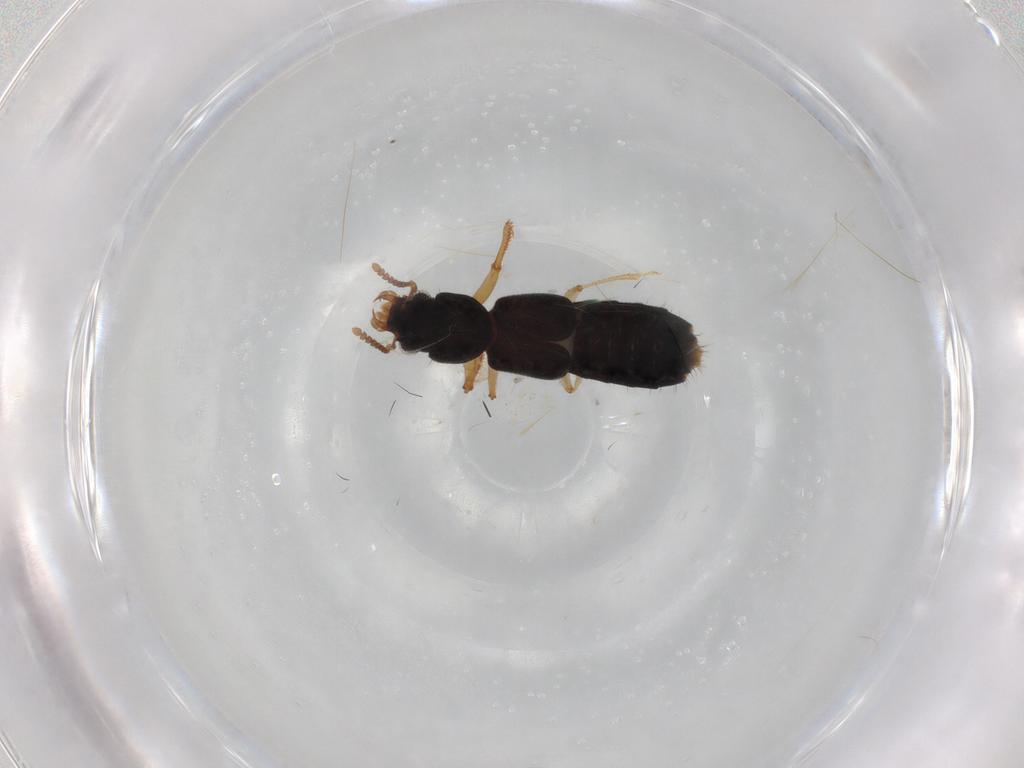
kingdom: Animalia
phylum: Arthropoda
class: Insecta
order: Coleoptera
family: Staphylinidae
